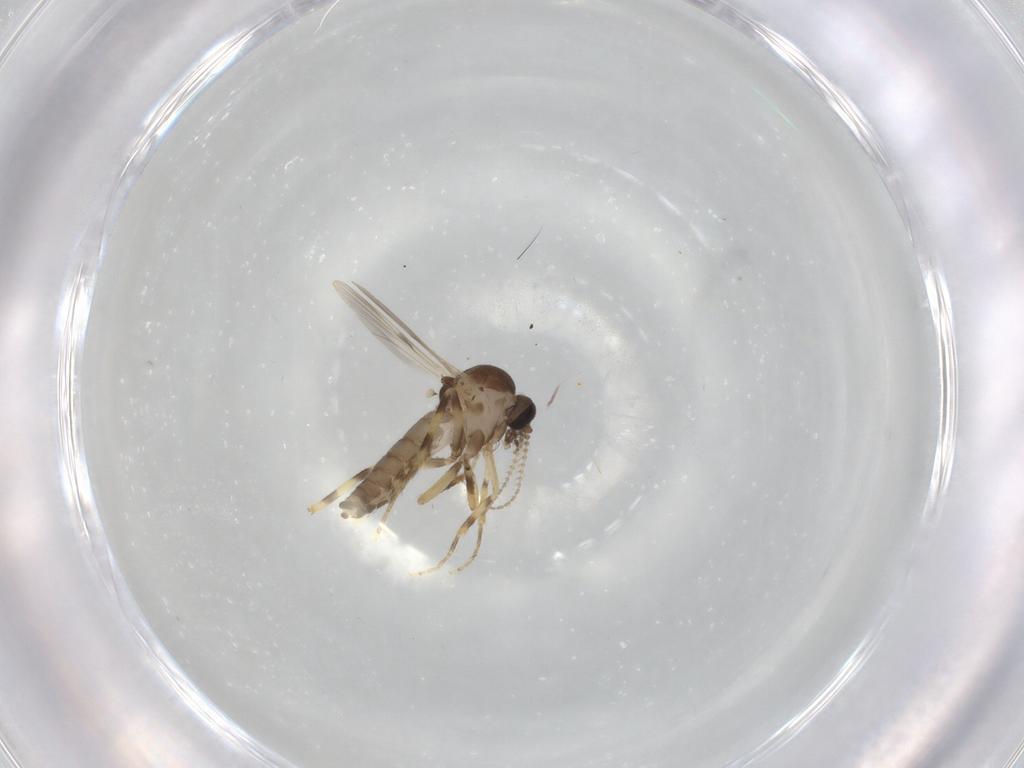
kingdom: Animalia
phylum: Arthropoda
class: Insecta
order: Diptera
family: Ceratopogonidae
